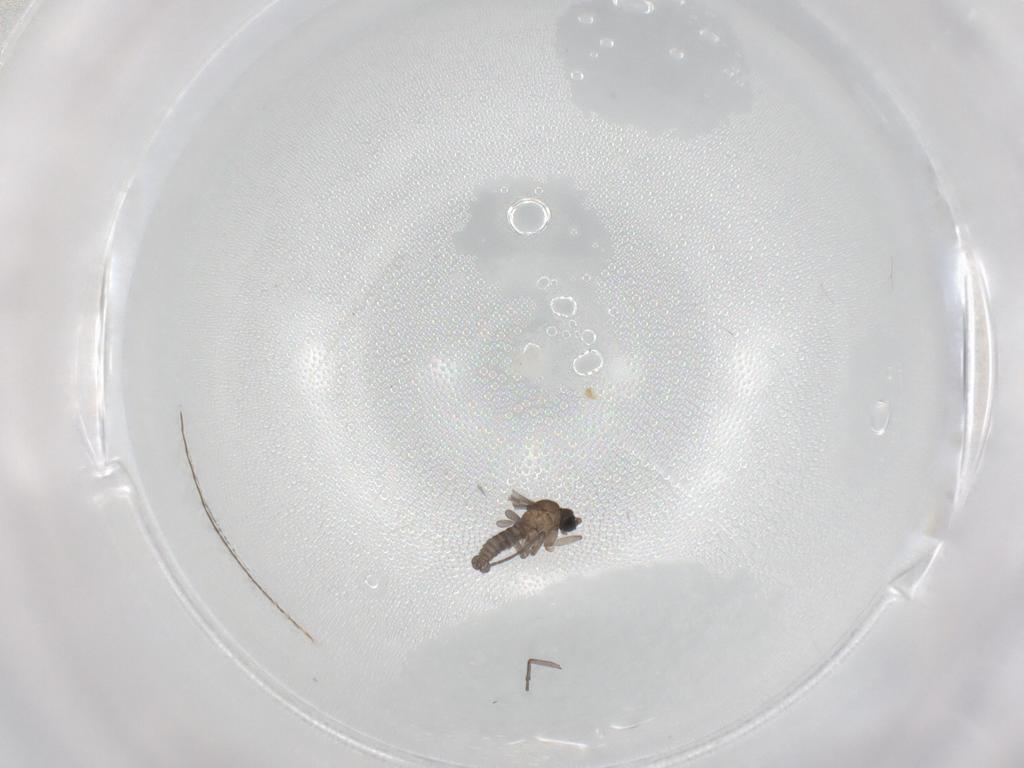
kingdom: Animalia
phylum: Arthropoda
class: Insecta
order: Diptera
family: Sciaridae
